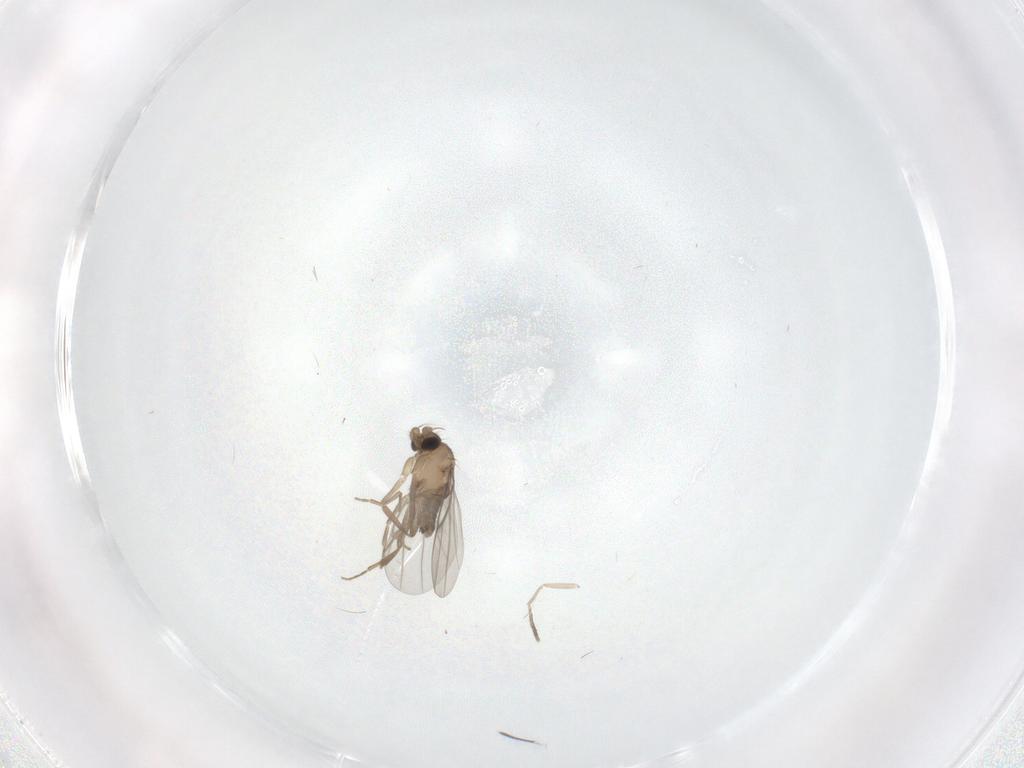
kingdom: Animalia
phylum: Arthropoda
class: Insecta
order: Diptera
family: Ceratopogonidae
